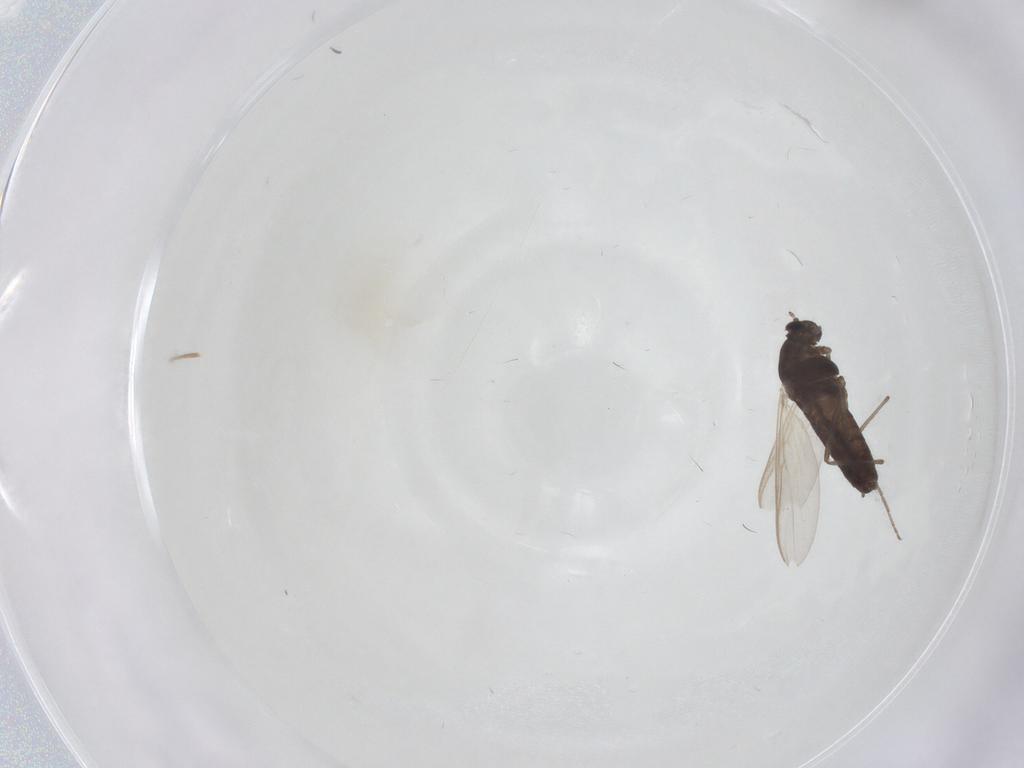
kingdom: Animalia
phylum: Arthropoda
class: Insecta
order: Diptera
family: Chironomidae
